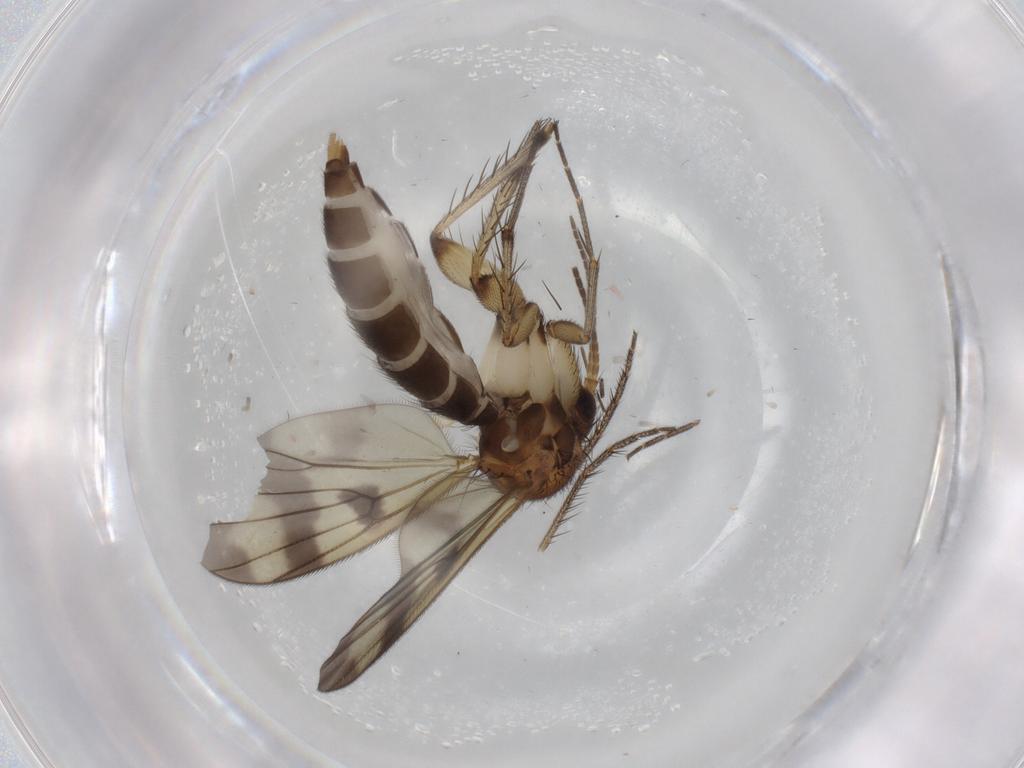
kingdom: Animalia
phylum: Arthropoda
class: Insecta
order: Diptera
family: Mycetophilidae
